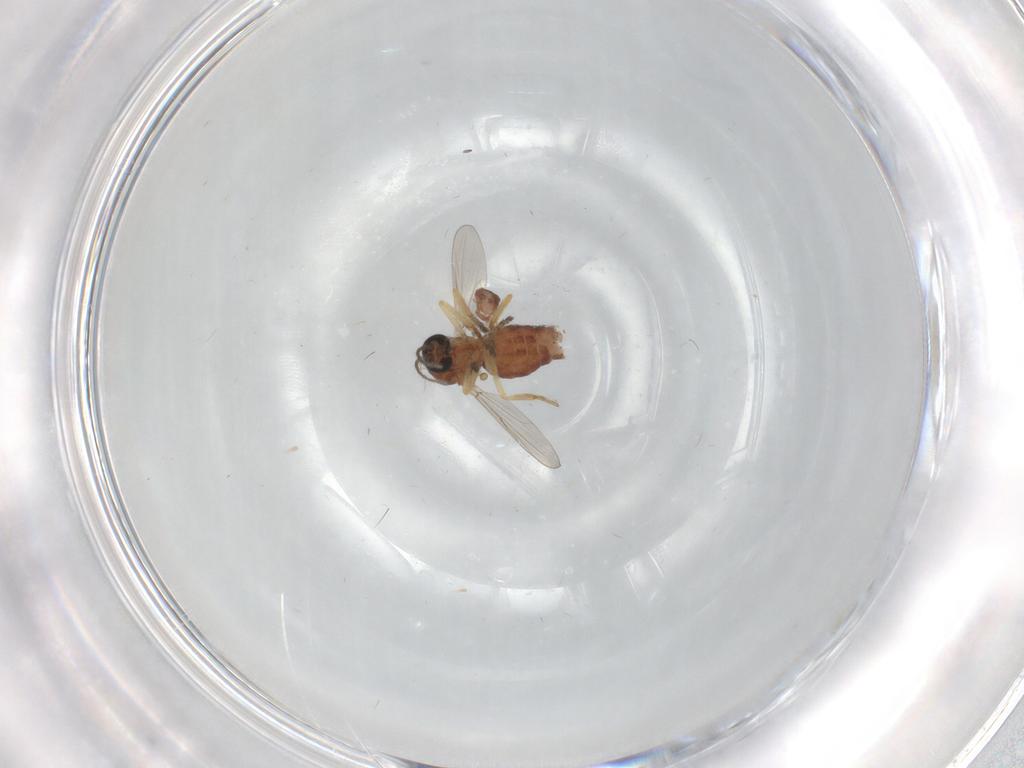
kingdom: Animalia
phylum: Arthropoda
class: Insecta
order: Diptera
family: Ceratopogonidae
